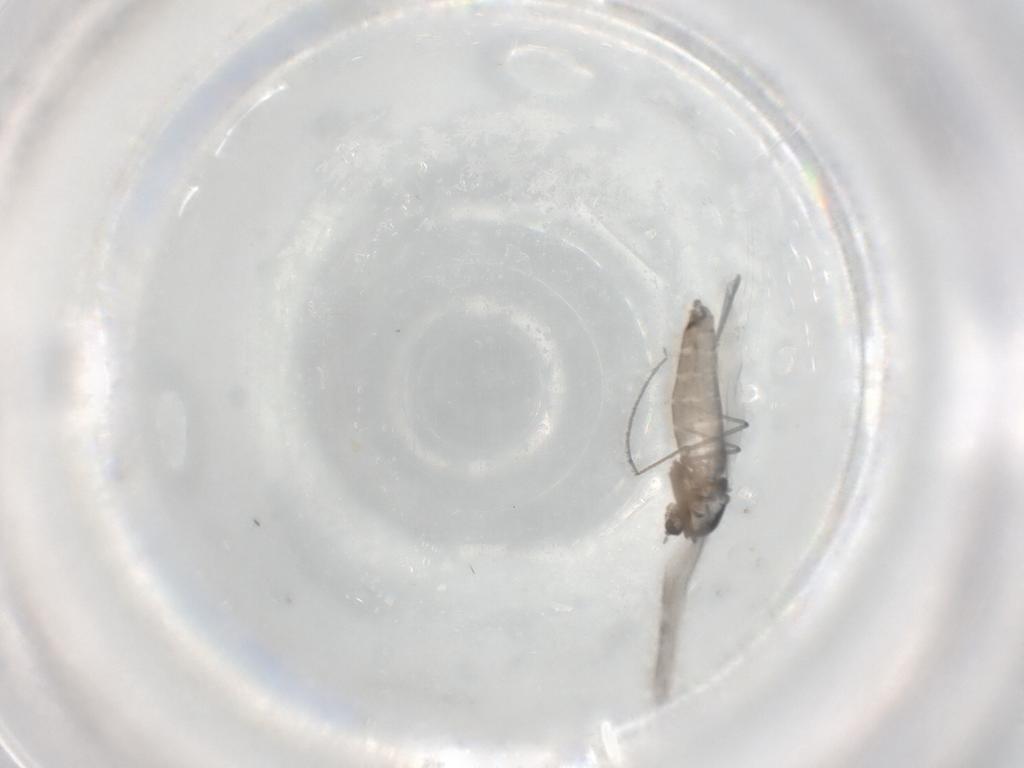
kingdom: Animalia
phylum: Arthropoda
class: Insecta
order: Diptera
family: Chironomidae
